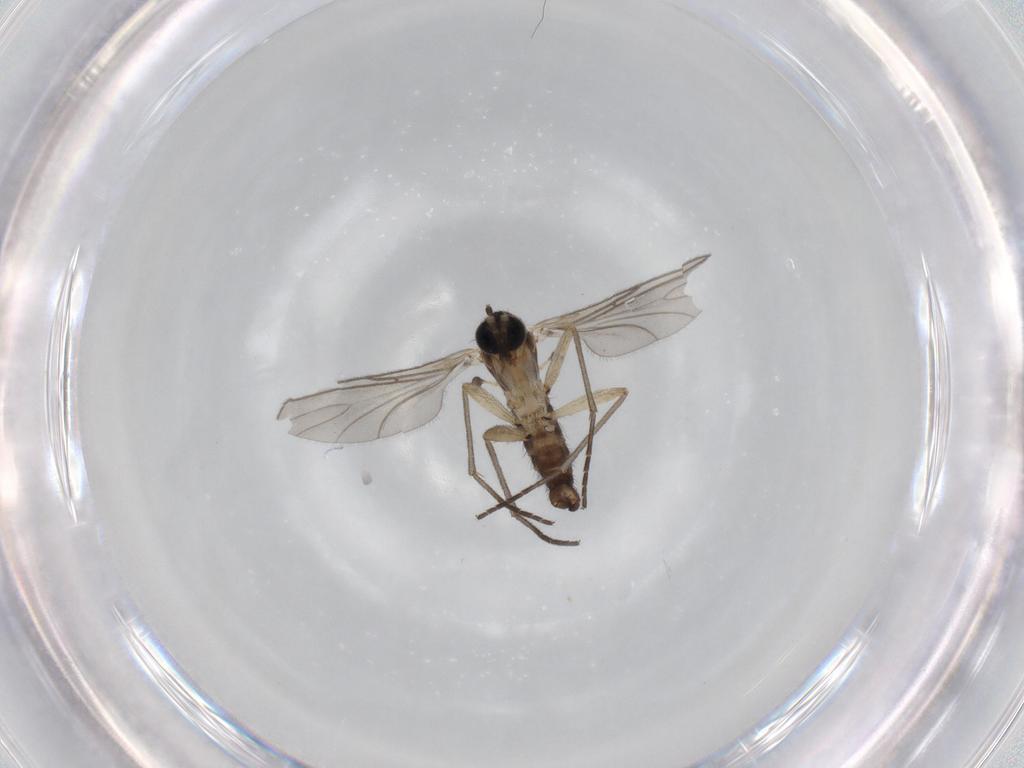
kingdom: Animalia
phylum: Arthropoda
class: Insecta
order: Diptera
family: Sciaridae
